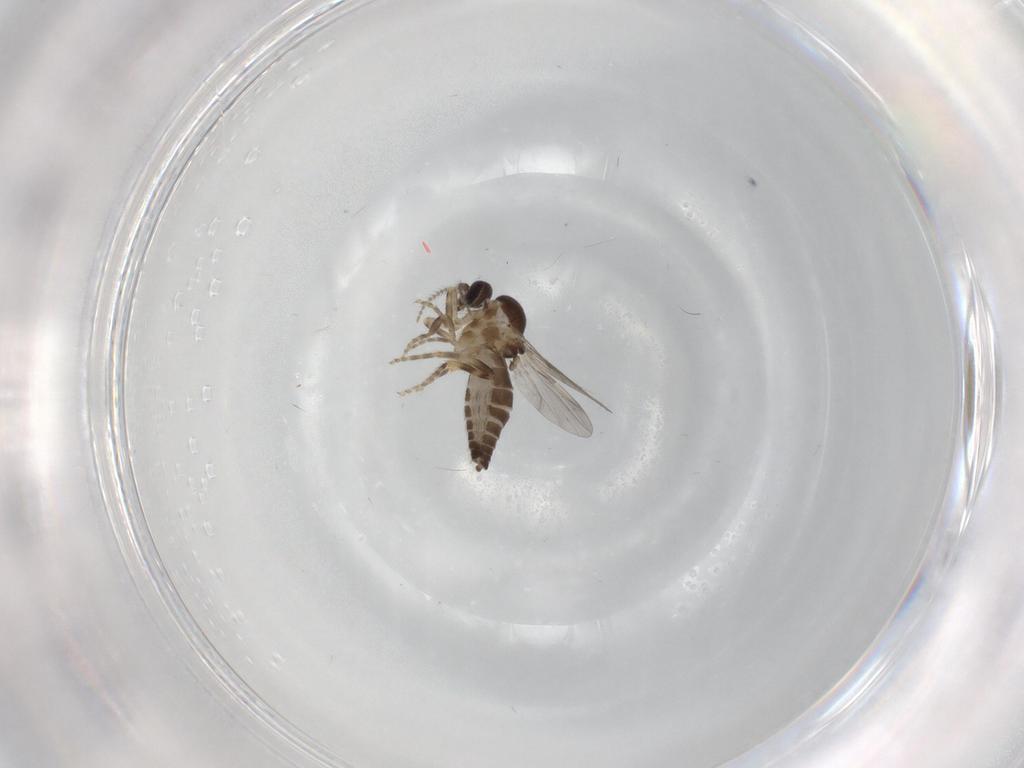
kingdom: Animalia
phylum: Arthropoda
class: Insecta
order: Diptera
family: Ceratopogonidae
